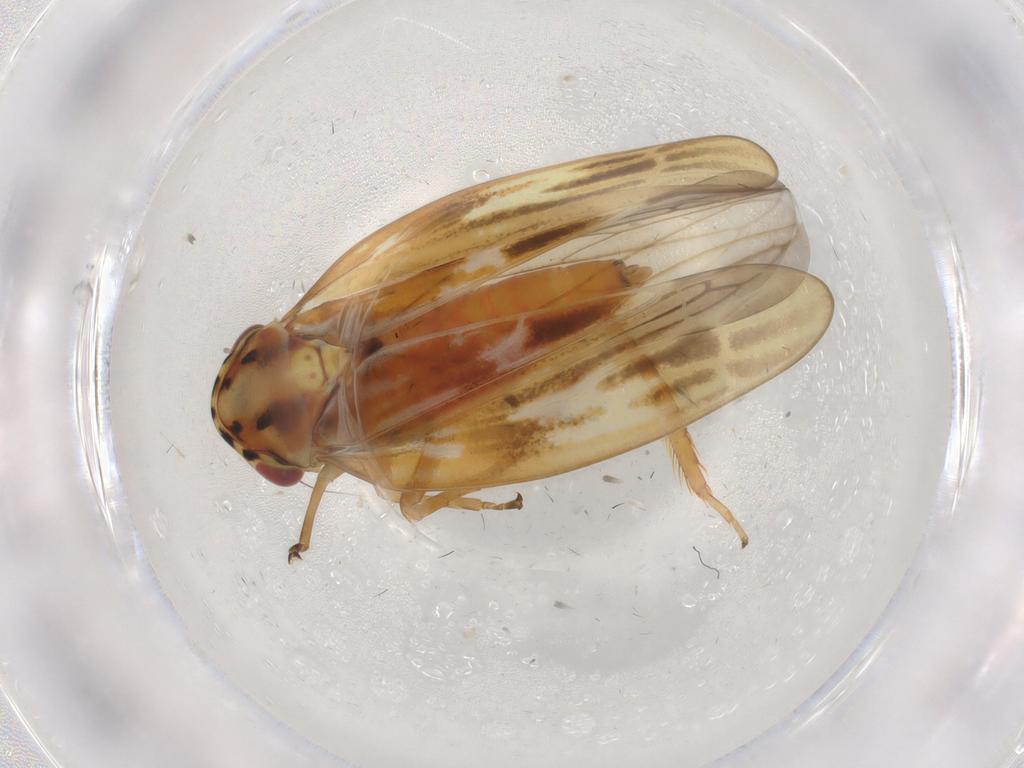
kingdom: Animalia
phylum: Arthropoda
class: Insecta
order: Hemiptera
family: Cicadellidae
